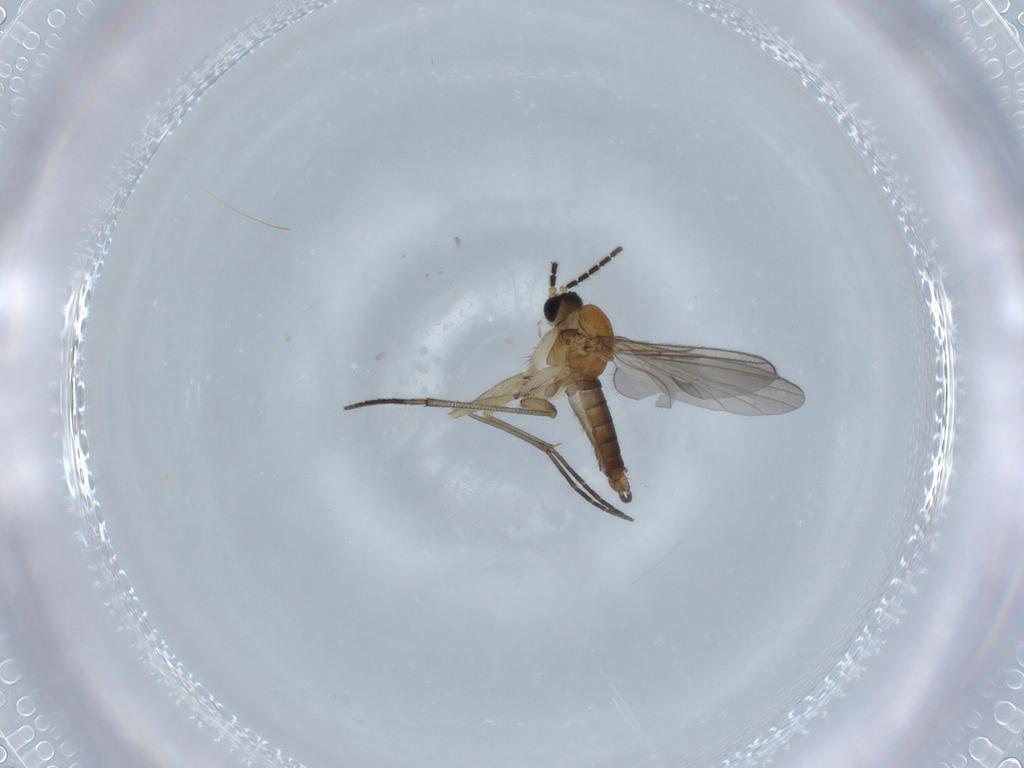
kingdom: Animalia
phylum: Arthropoda
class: Insecta
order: Diptera
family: Sciaridae
